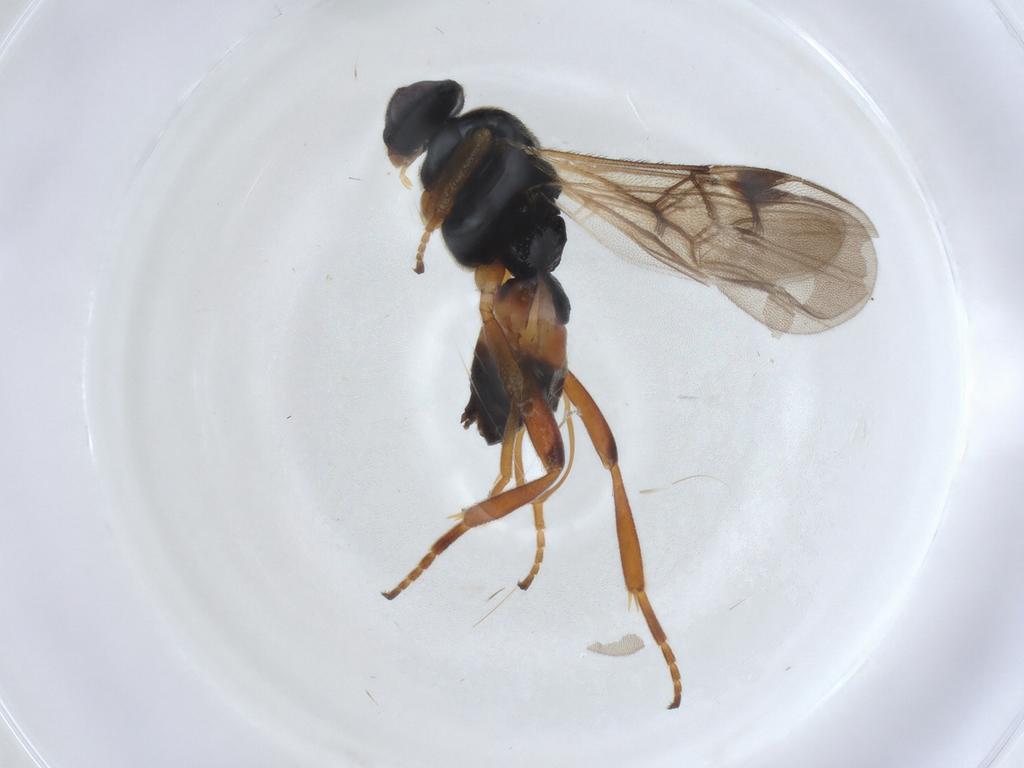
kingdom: Animalia
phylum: Arthropoda
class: Insecta
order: Hymenoptera
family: Braconidae
